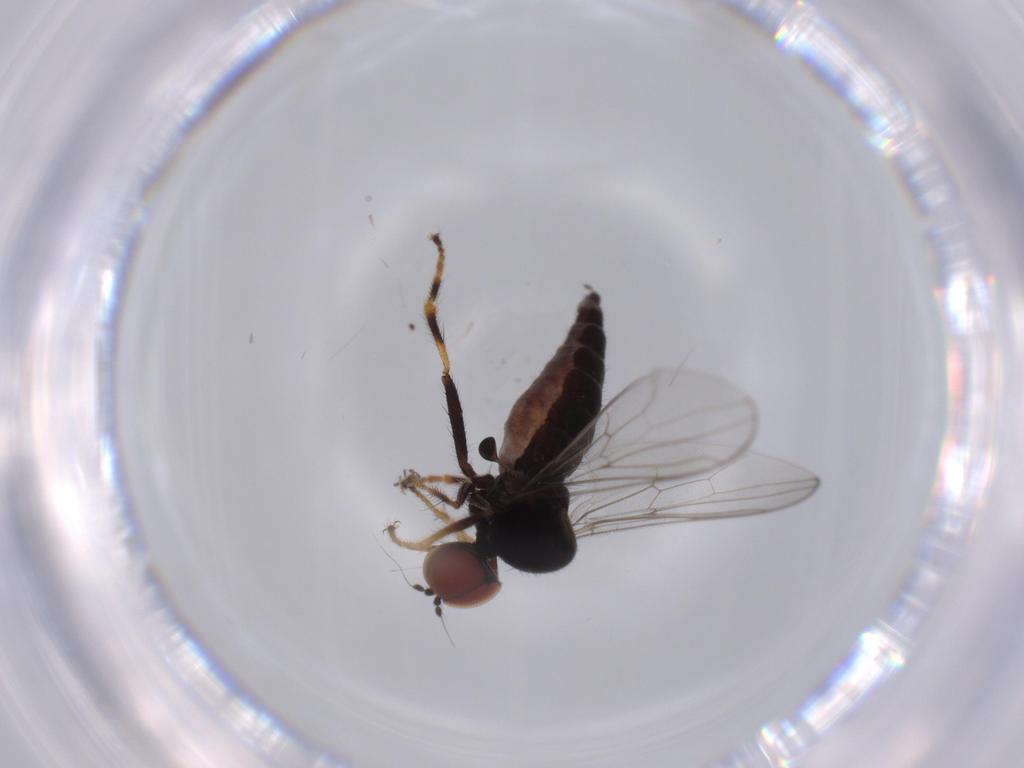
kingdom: Animalia
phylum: Arthropoda
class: Insecta
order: Diptera
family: Hybotidae
